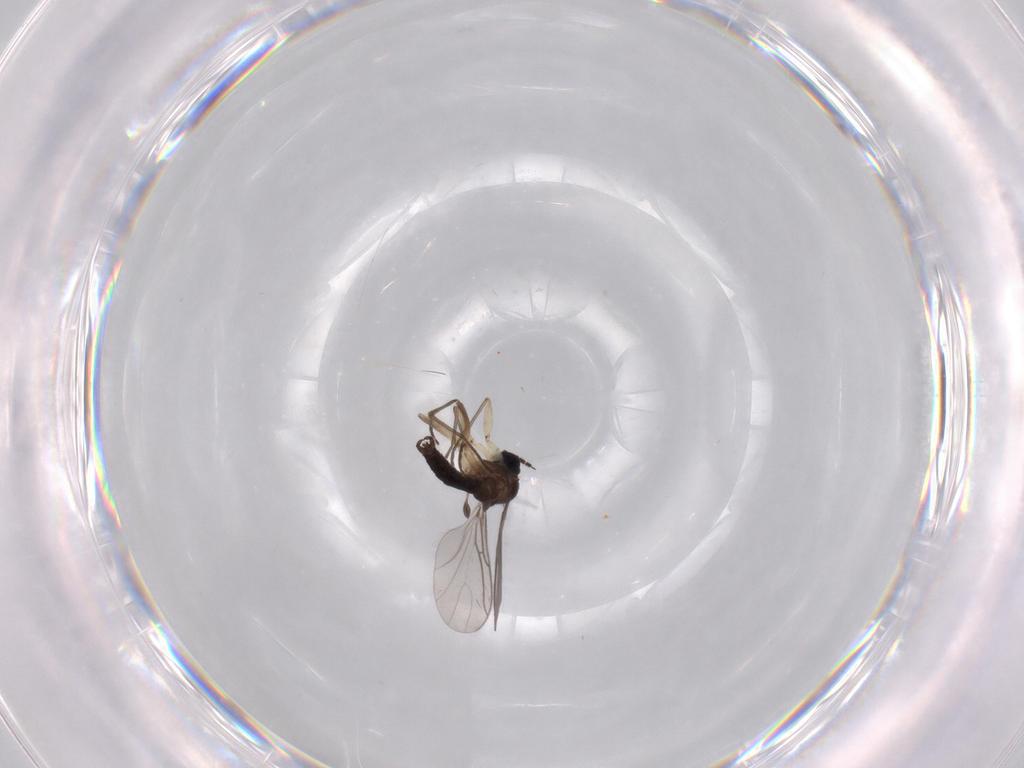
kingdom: Animalia
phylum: Arthropoda
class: Insecta
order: Diptera
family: Sciaridae
